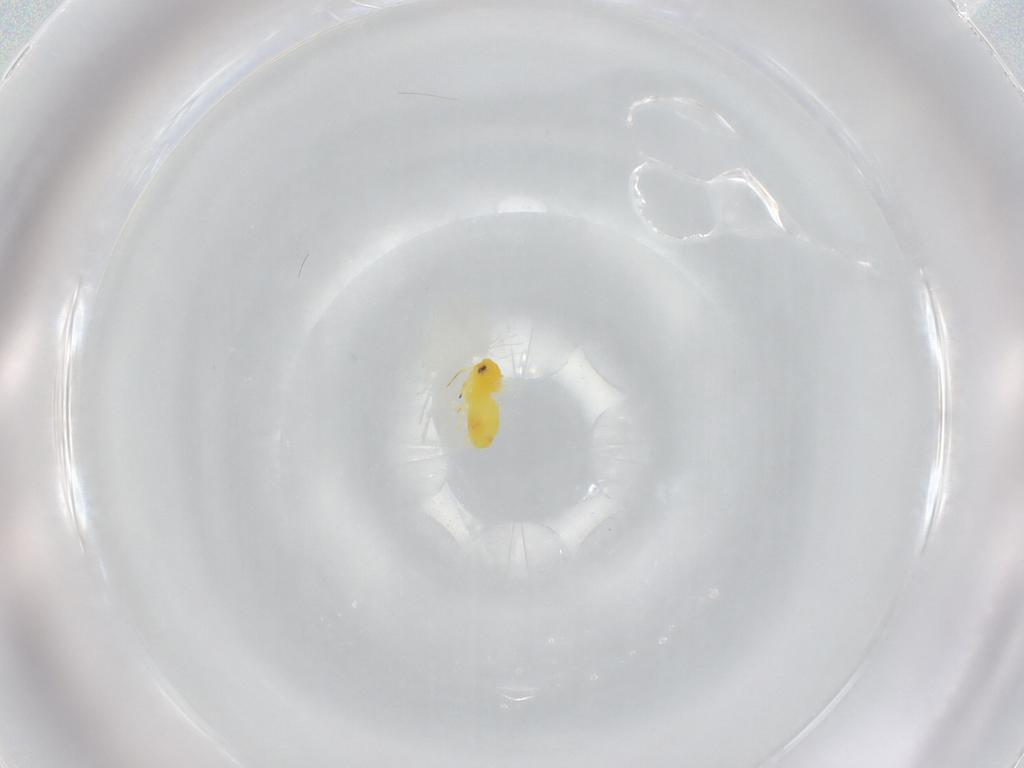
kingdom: Animalia
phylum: Arthropoda
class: Insecta
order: Hemiptera
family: Aleyrodidae
